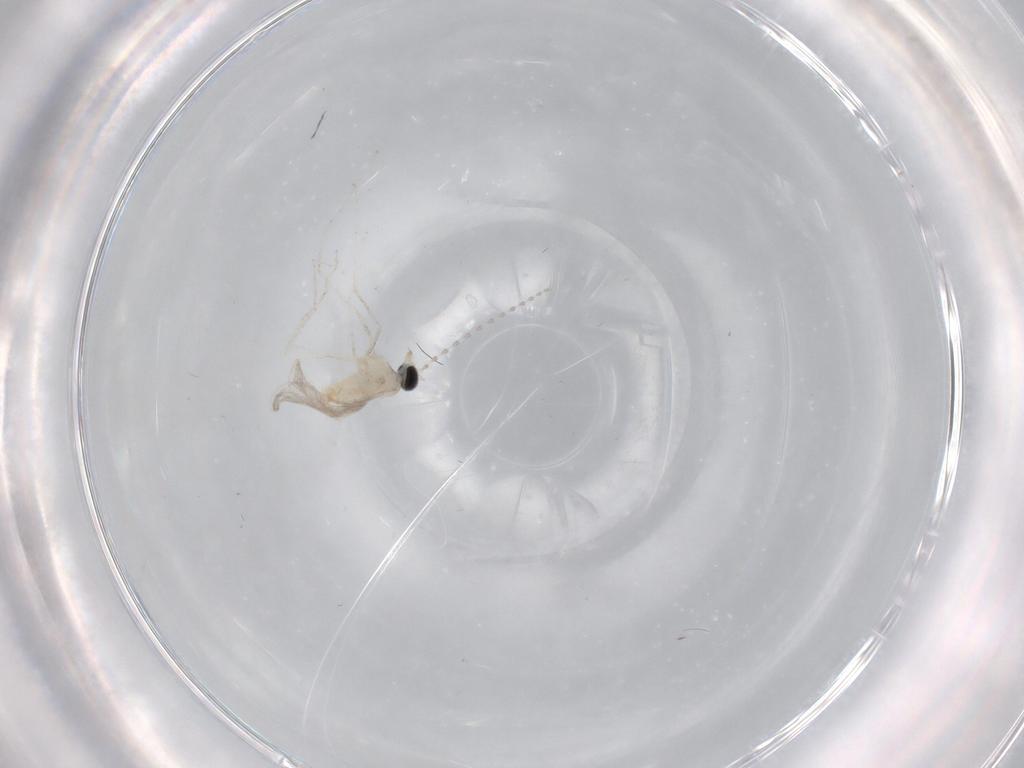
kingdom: Animalia
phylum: Arthropoda
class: Insecta
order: Diptera
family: Cecidomyiidae
